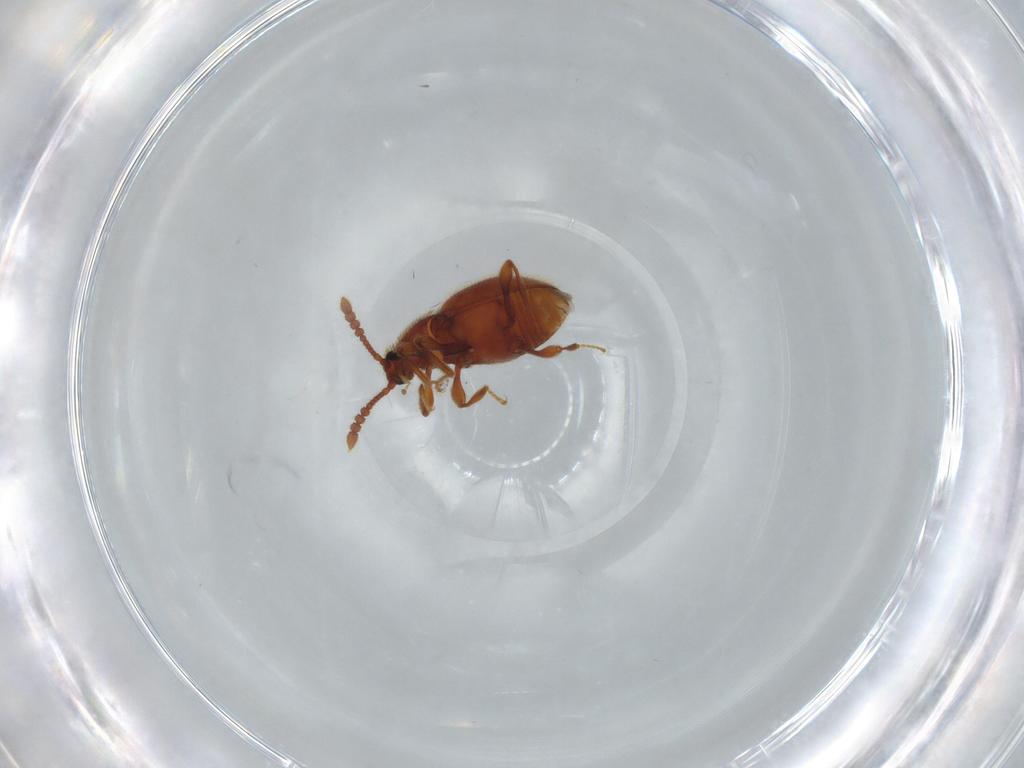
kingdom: Animalia
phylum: Arthropoda
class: Insecta
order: Coleoptera
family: Staphylinidae
